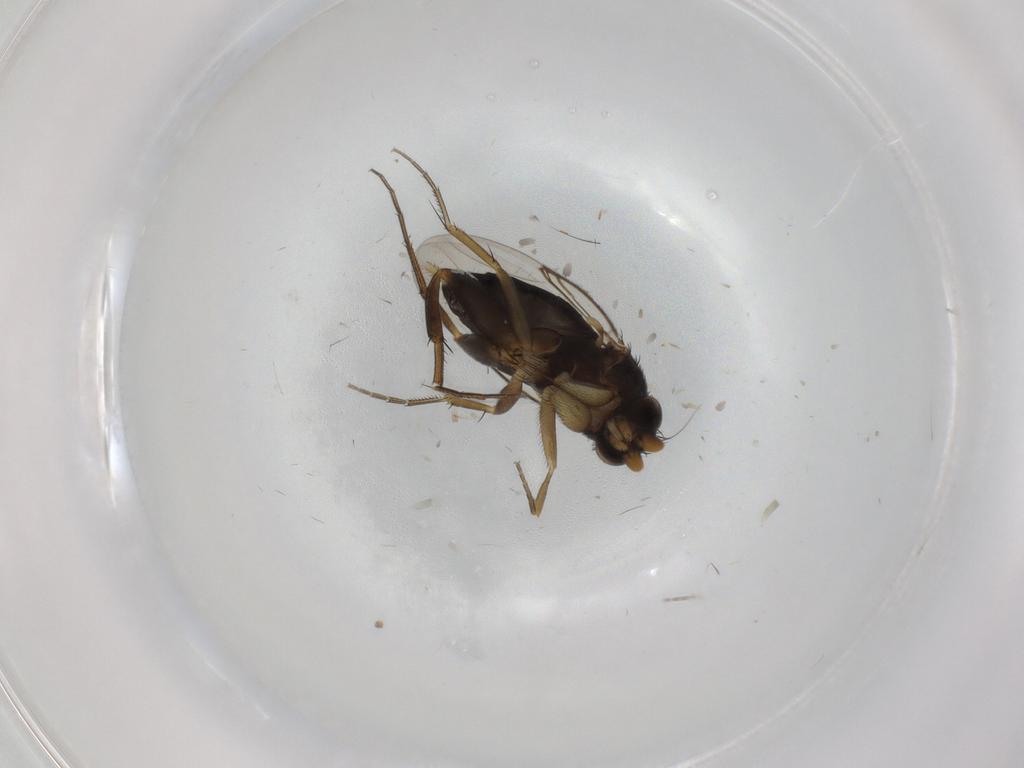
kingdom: Animalia
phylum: Arthropoda
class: Insecta
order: Diptera
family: Phoridae
